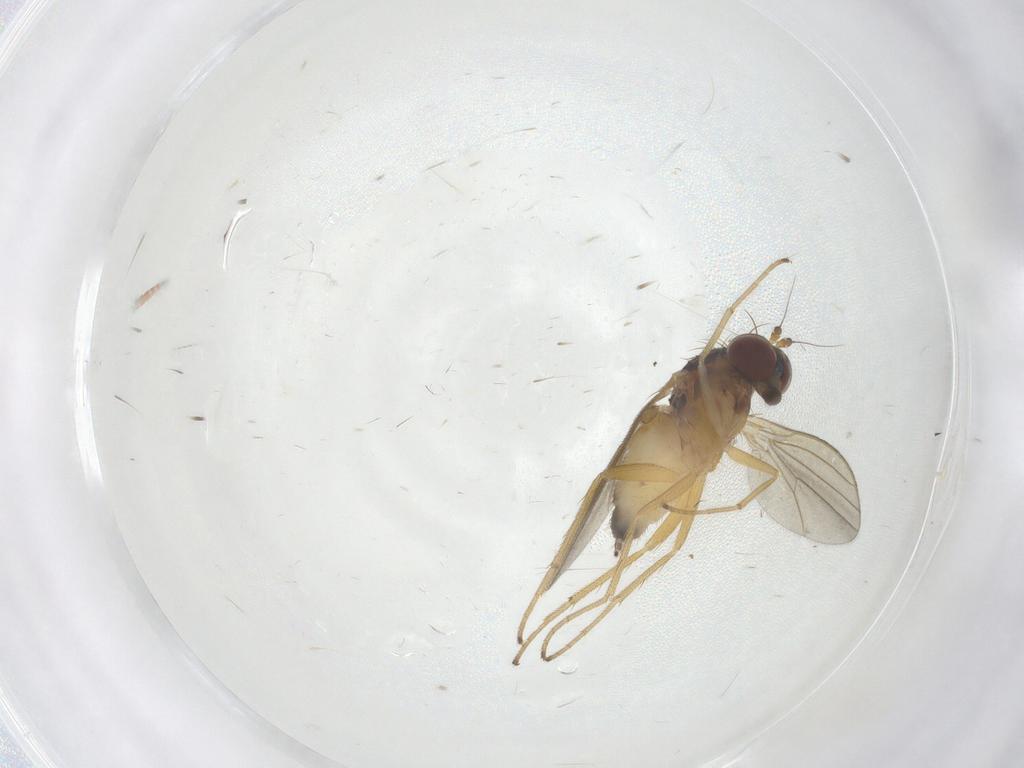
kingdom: Animalia
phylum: Arthropoda
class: Insecta
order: Diptera
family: Dolichopodidae
